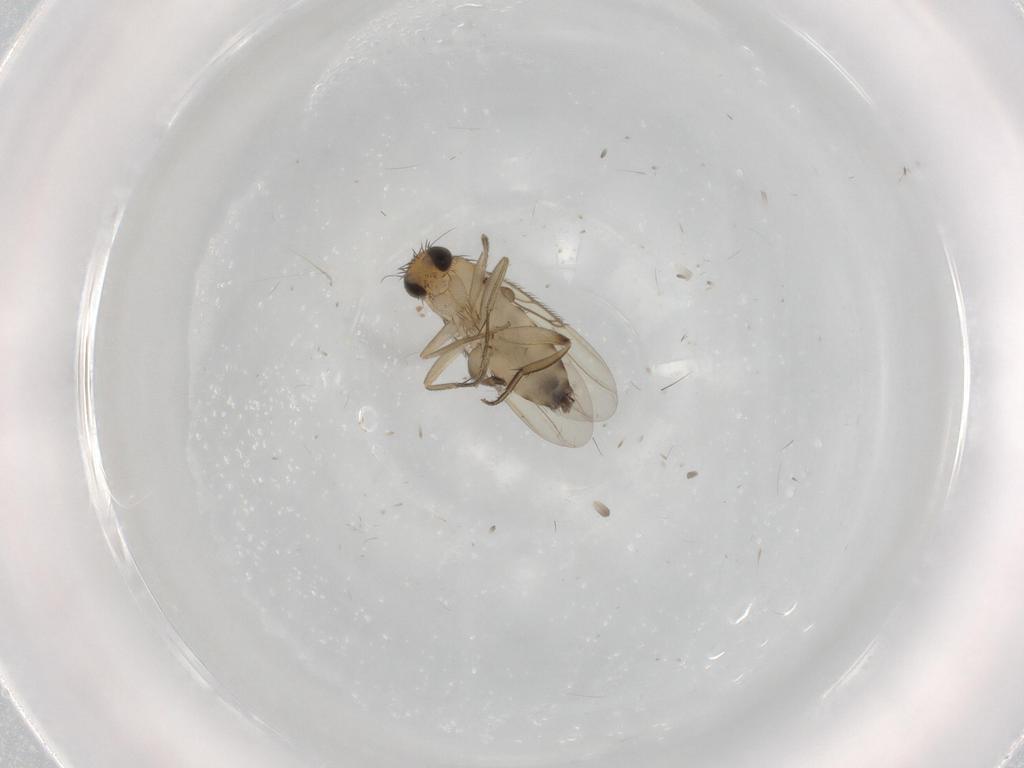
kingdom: Animalia
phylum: Arthropoda
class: Insecta
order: Diptera
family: Phoridae
